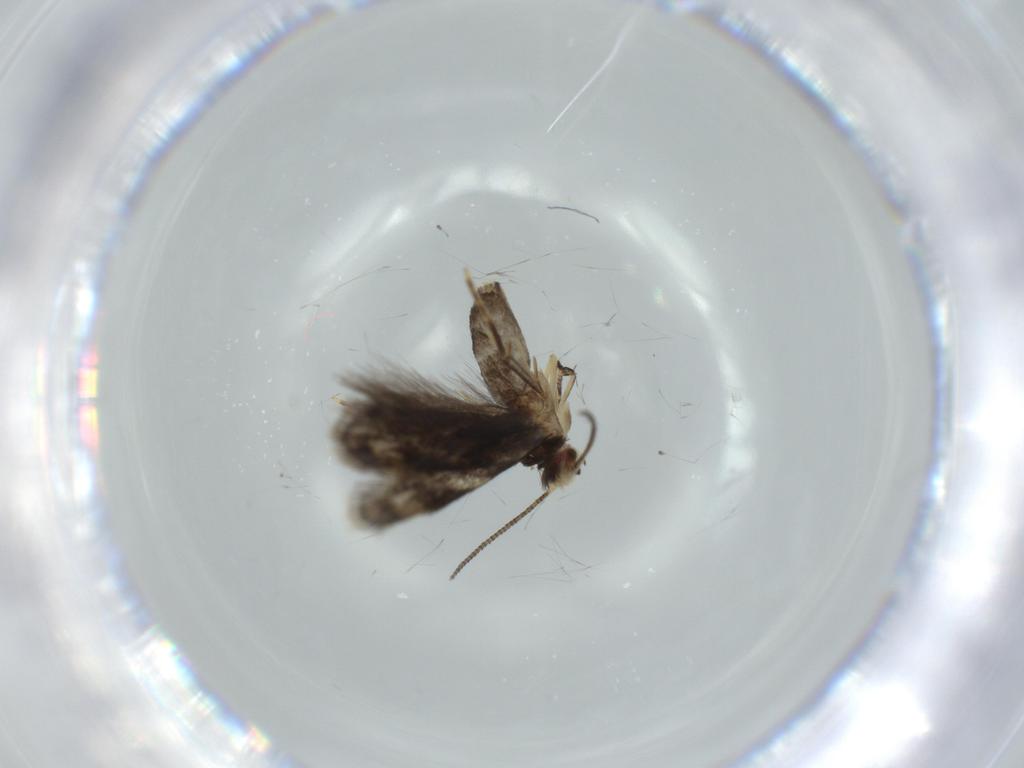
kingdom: Animalia
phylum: Arthropoda
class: Insecta
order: Lepidoptera
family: Tineidae
